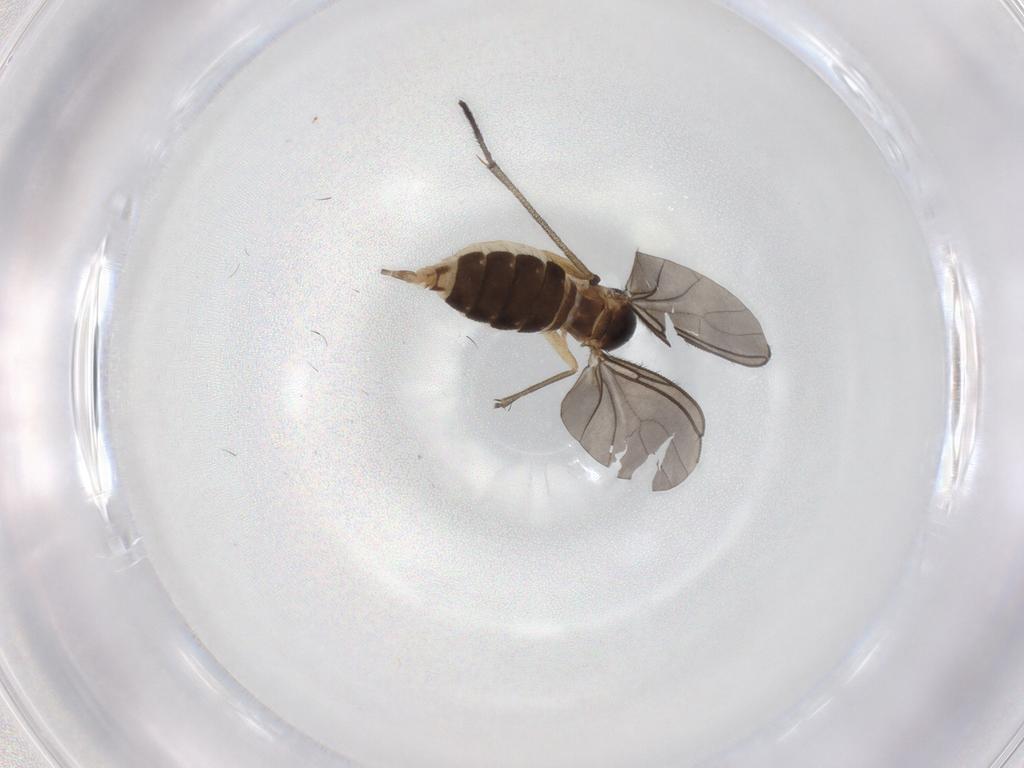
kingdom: Animalia
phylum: Arthropoda
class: Insecta
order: Diptera
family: Sciaridae
